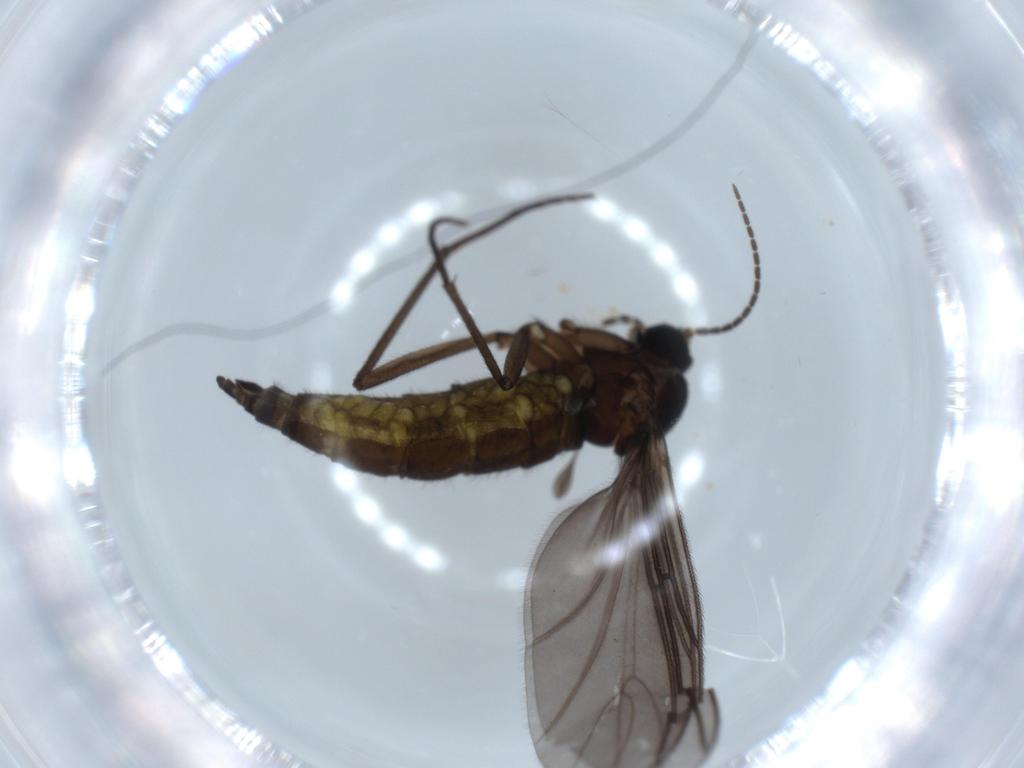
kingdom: Animalia
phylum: Arthropoda
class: Insecta
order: Diptera
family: Sciaridae
